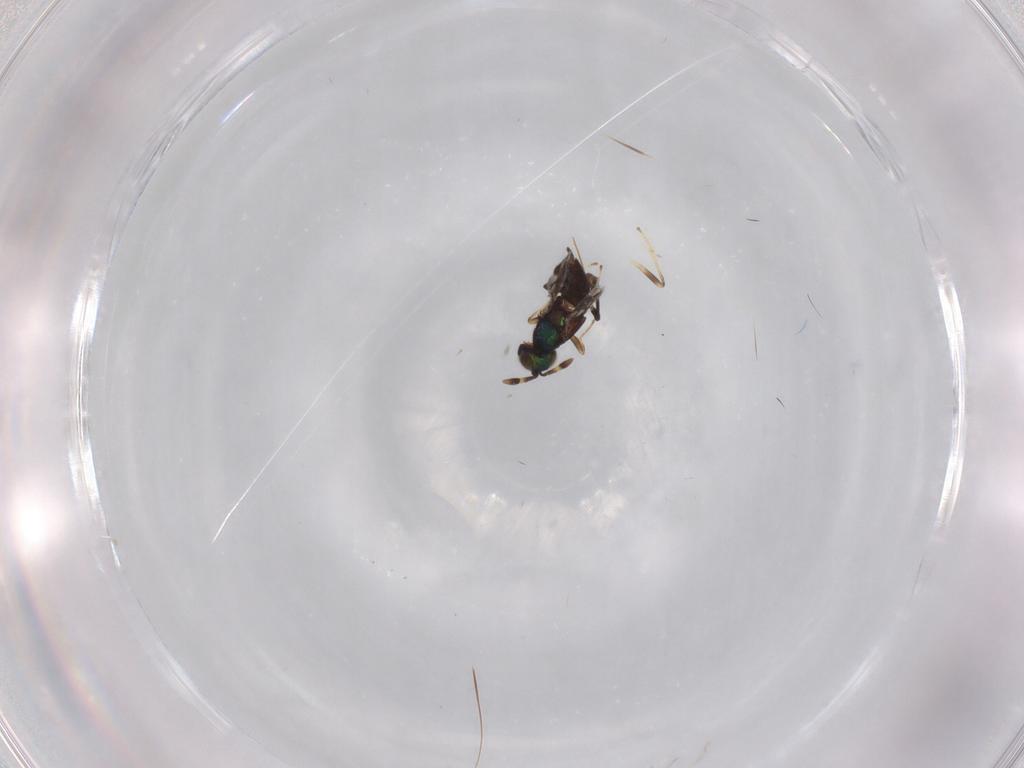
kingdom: Animalia
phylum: Arthropoda
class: Insecta
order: Hymenoptera
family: Encyrtidae
